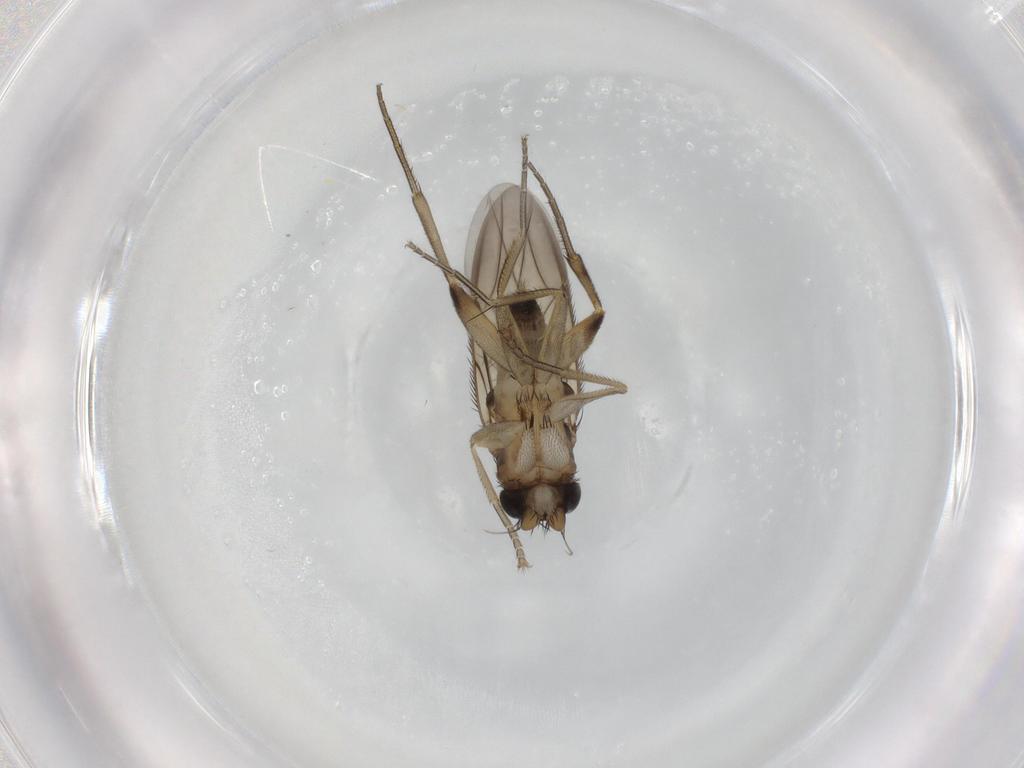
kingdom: Animalia
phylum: Arthropoda
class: Insecta
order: Diptera
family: Phoridae
